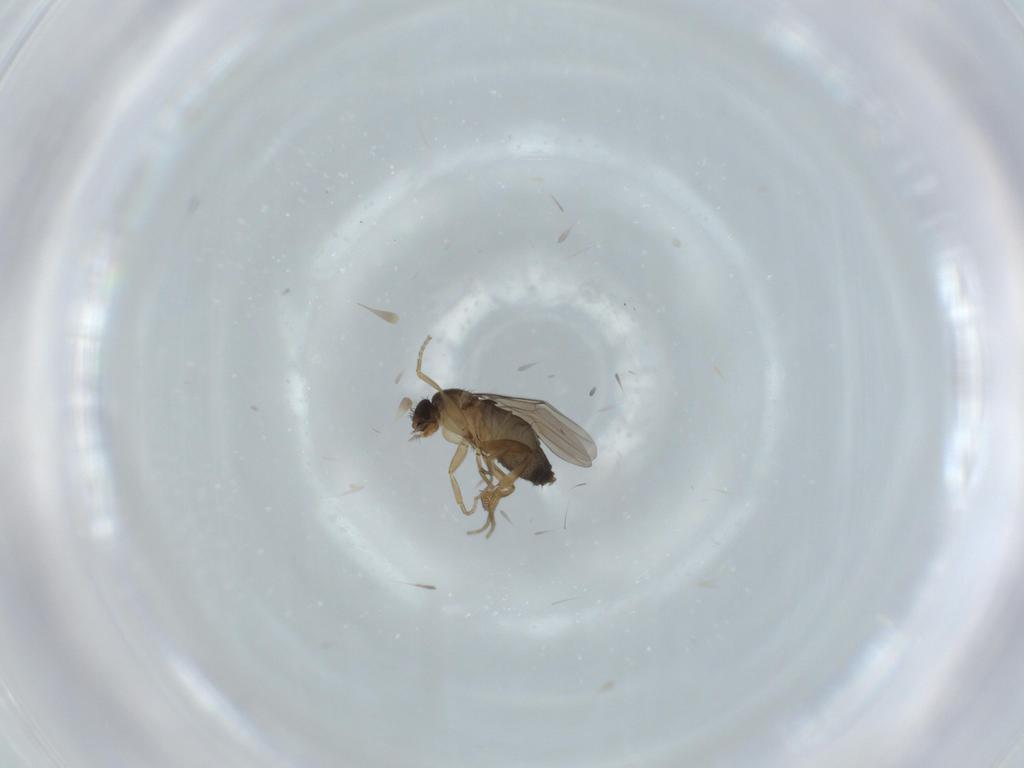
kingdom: Animalia
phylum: Arthropoda
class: Insecta
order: Diptera
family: Phoridae
